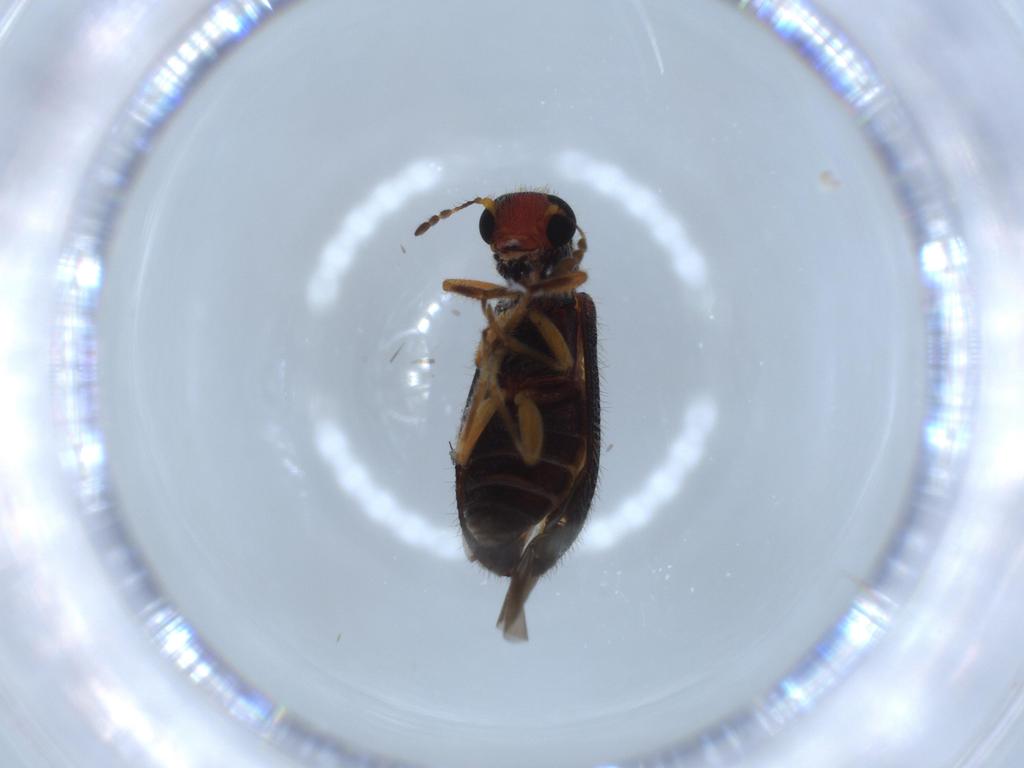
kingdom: Animalia
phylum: Arthropoda
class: Insecta
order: Coleoptera
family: Cleridae
